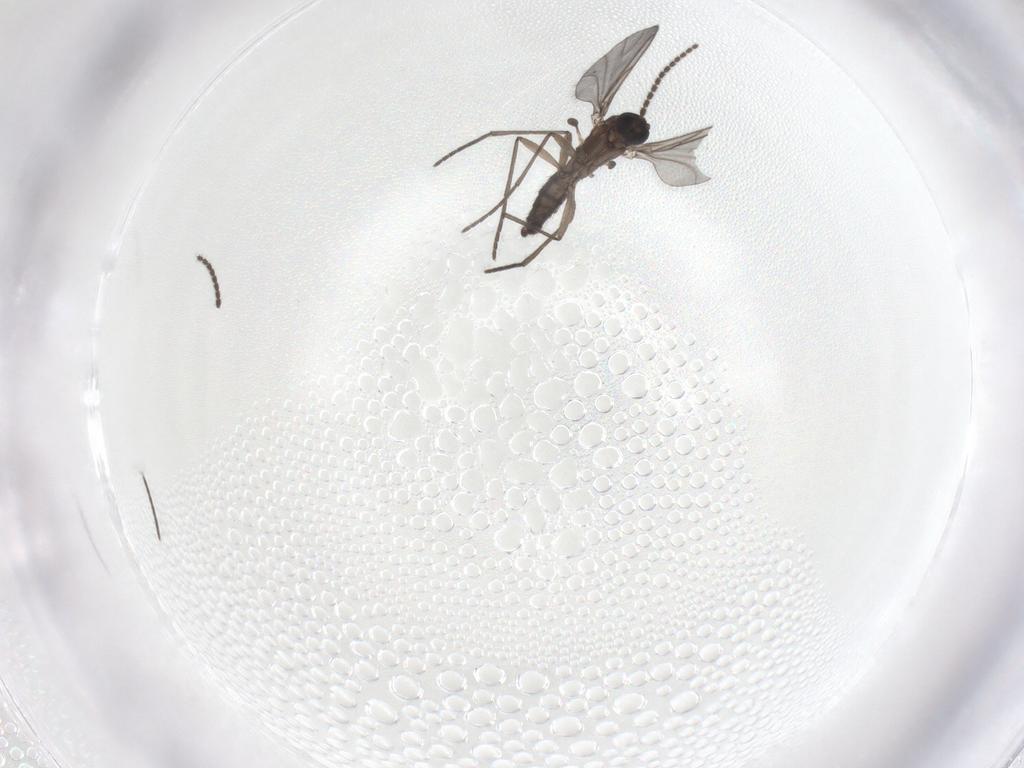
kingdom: Animalia
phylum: Arthropoda
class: Insecta
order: Diptera
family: Sciaridae
